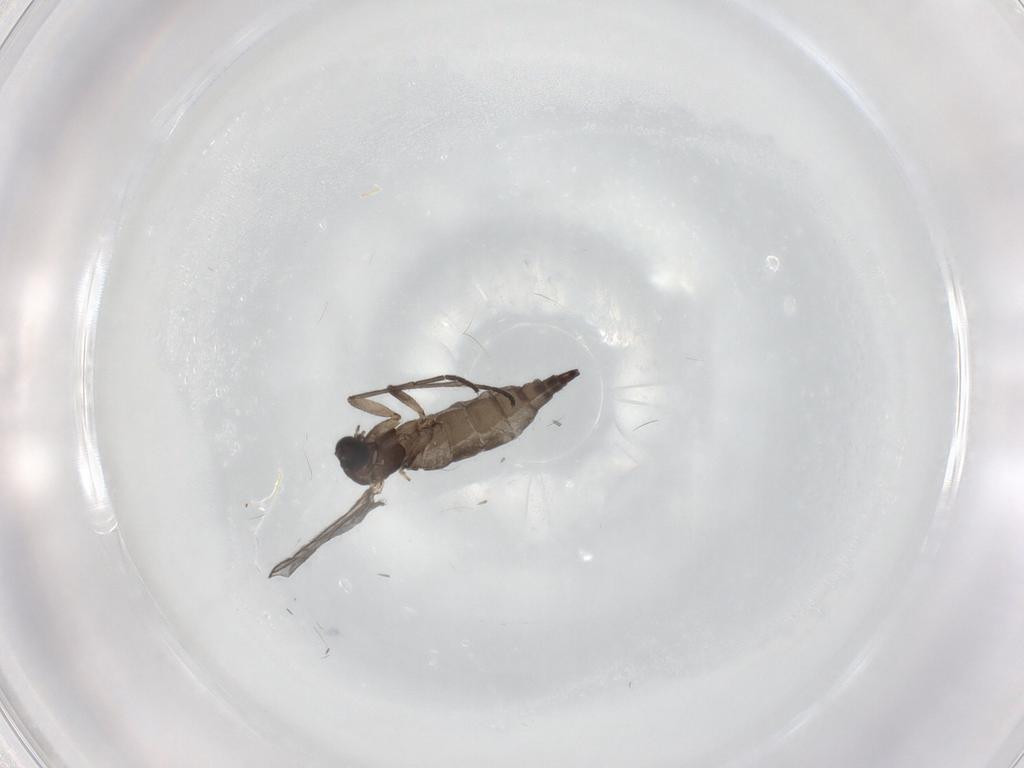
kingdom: Animalia
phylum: Arthropoda
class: Insecta
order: Diptera
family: Sciaridae
